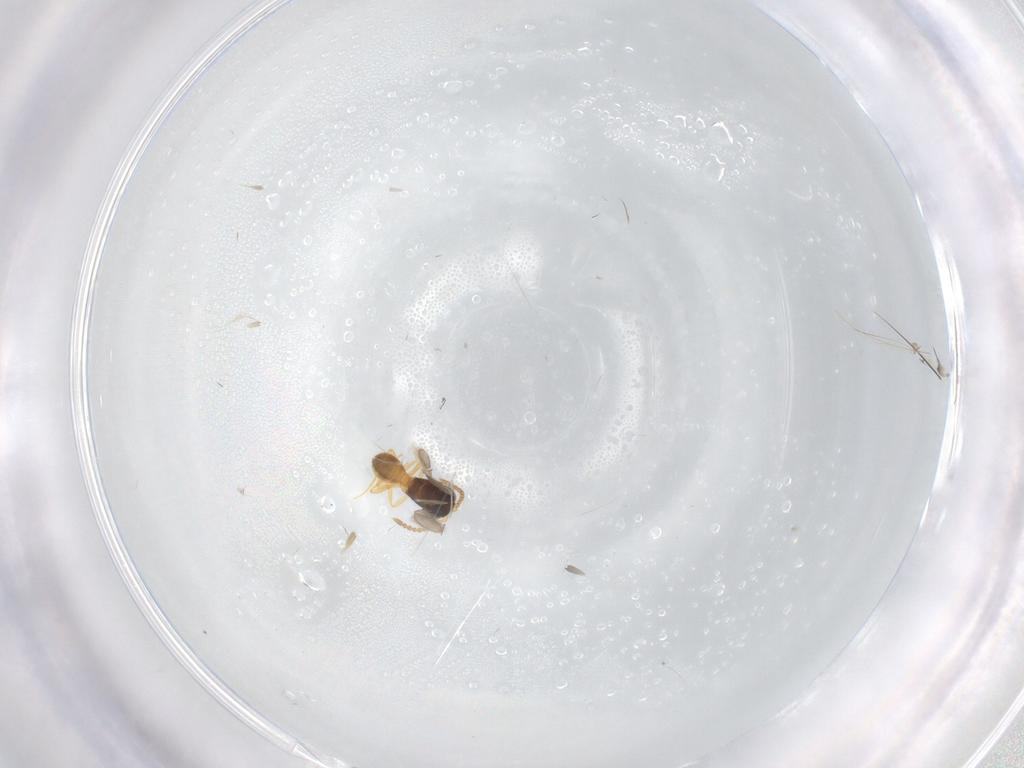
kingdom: Animalia
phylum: Arthropoda
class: Insecta
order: Hymenoptera
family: Scelionidae
